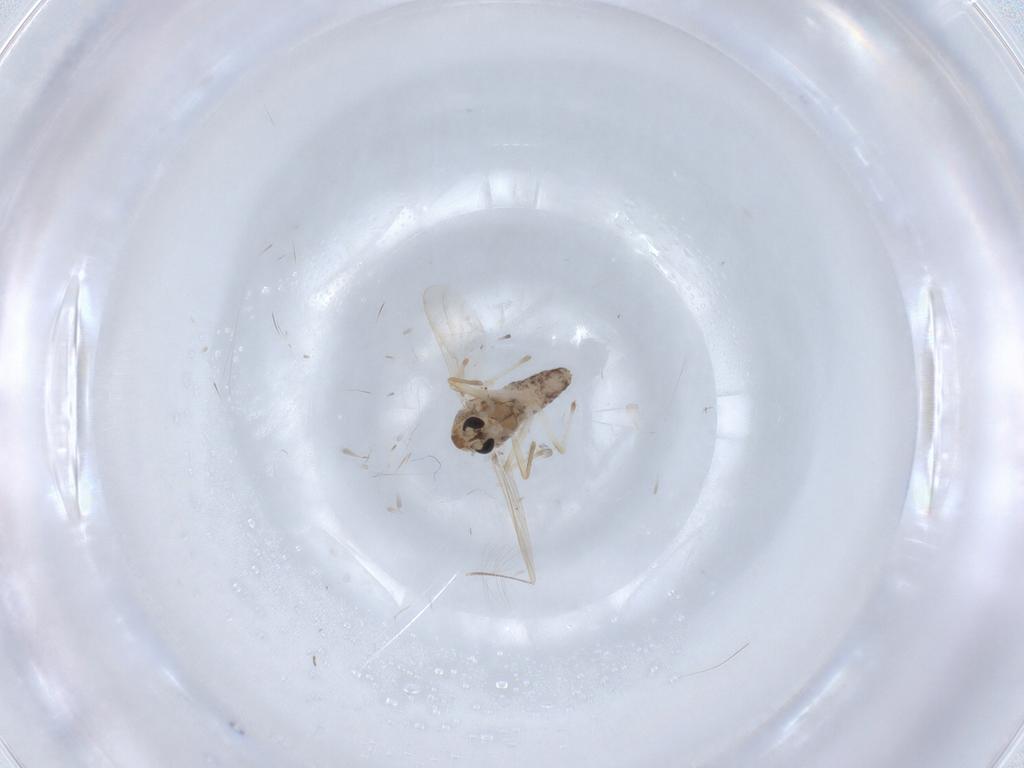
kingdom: Animalia
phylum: Arthropoda
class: Insecta
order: Diptera
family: Chironomidae
